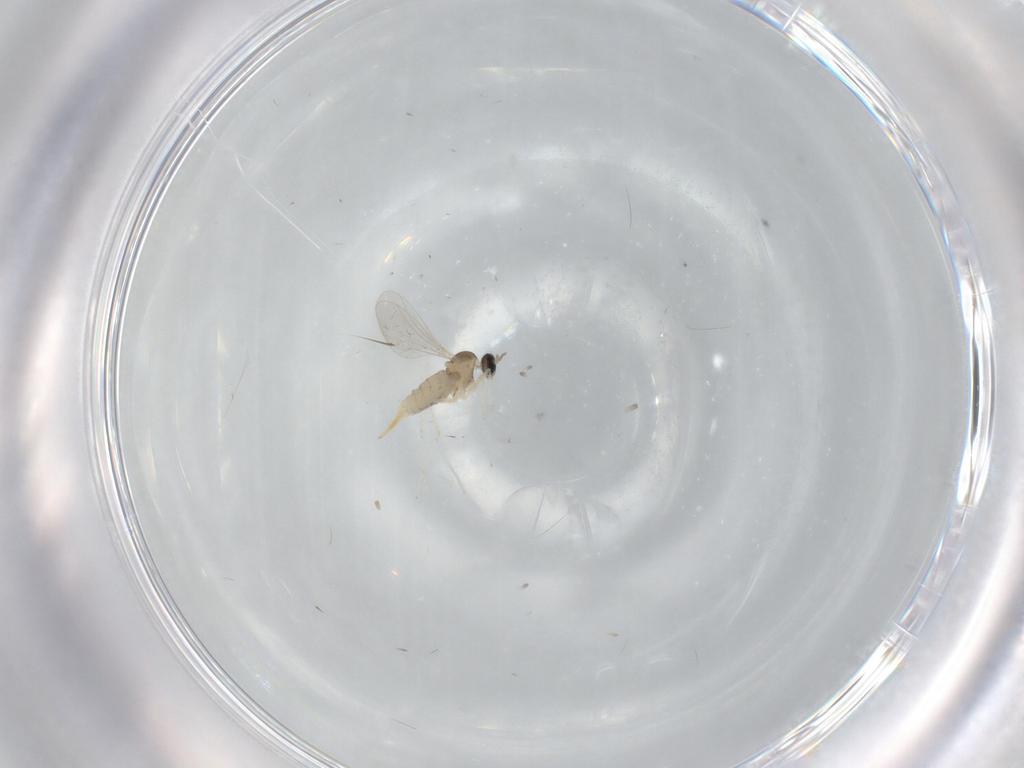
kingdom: Animalia
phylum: Arthropoda
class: Insecta
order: Diptera
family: Cecidomyiidae
